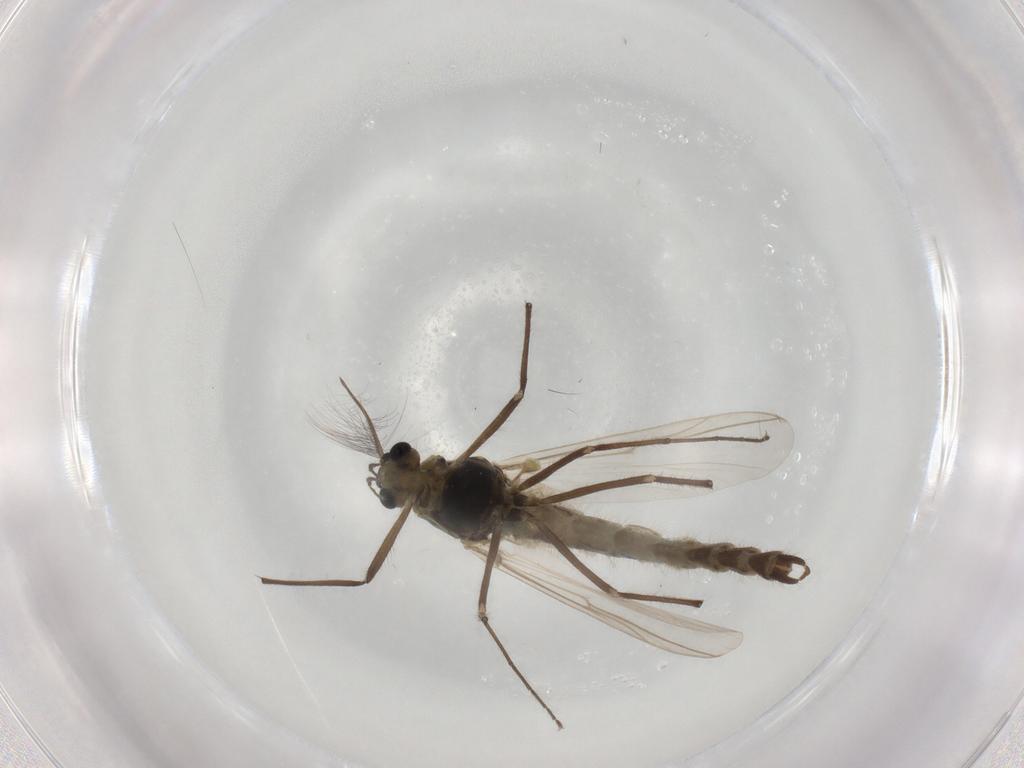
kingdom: Animalia
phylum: Arthropoda
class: Insecta
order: Diptera
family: Muscidae
